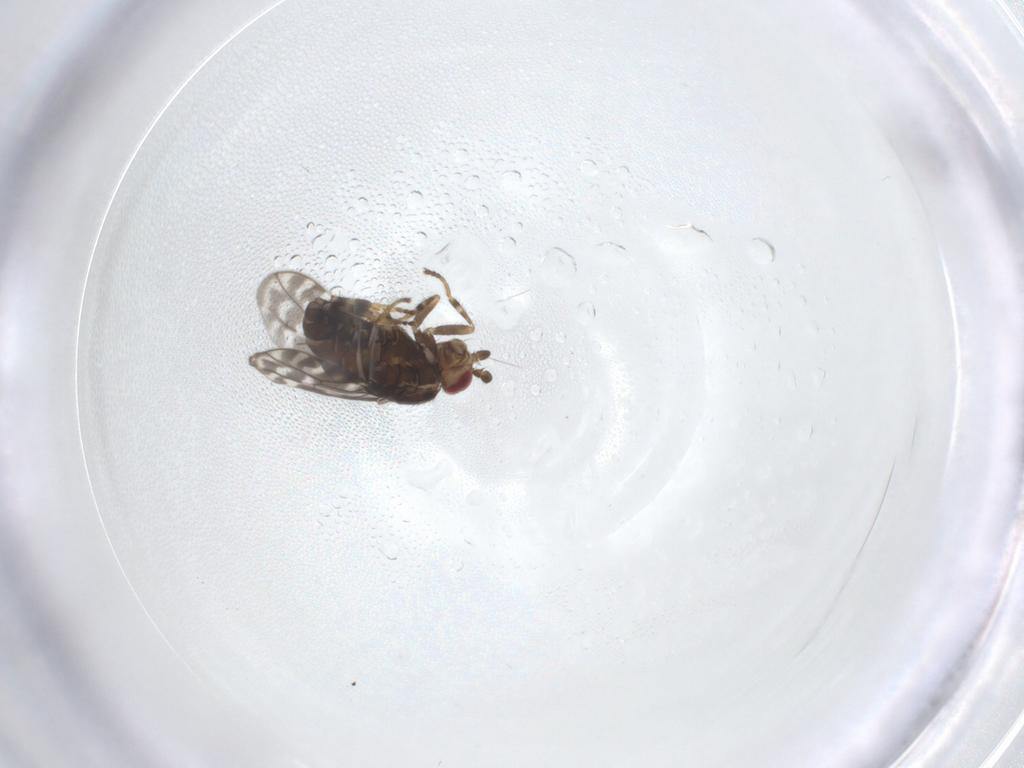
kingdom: Animalia
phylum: Arthropoda
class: Insecta
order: Diptera
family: Sphaeroceridae
